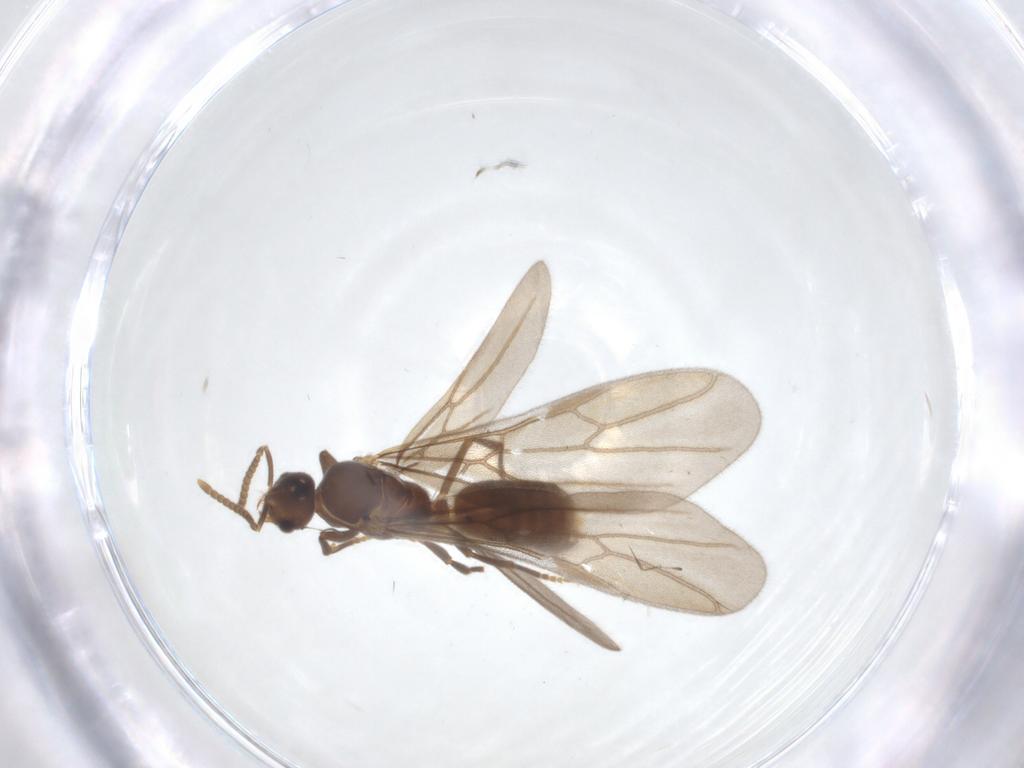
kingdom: Animalia
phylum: Arthropoda
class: Insecta
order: Hymenoptera
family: Formicidae
